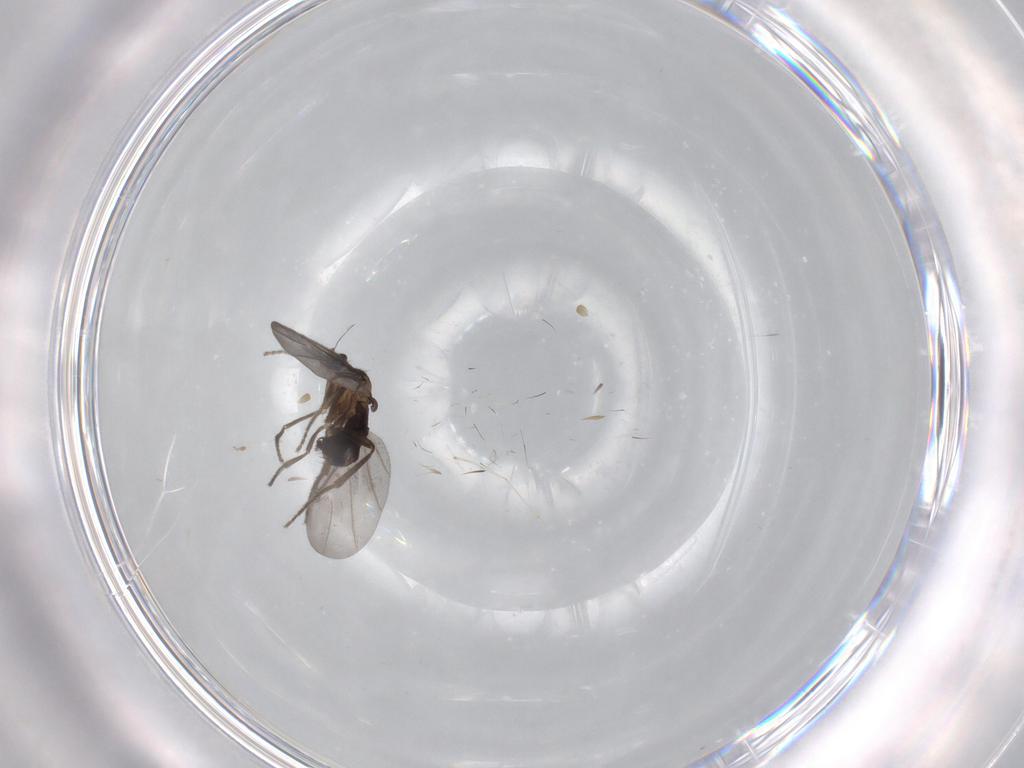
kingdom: Animalia
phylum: Arthropoda
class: Insecta
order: Diptera
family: Phoridae
